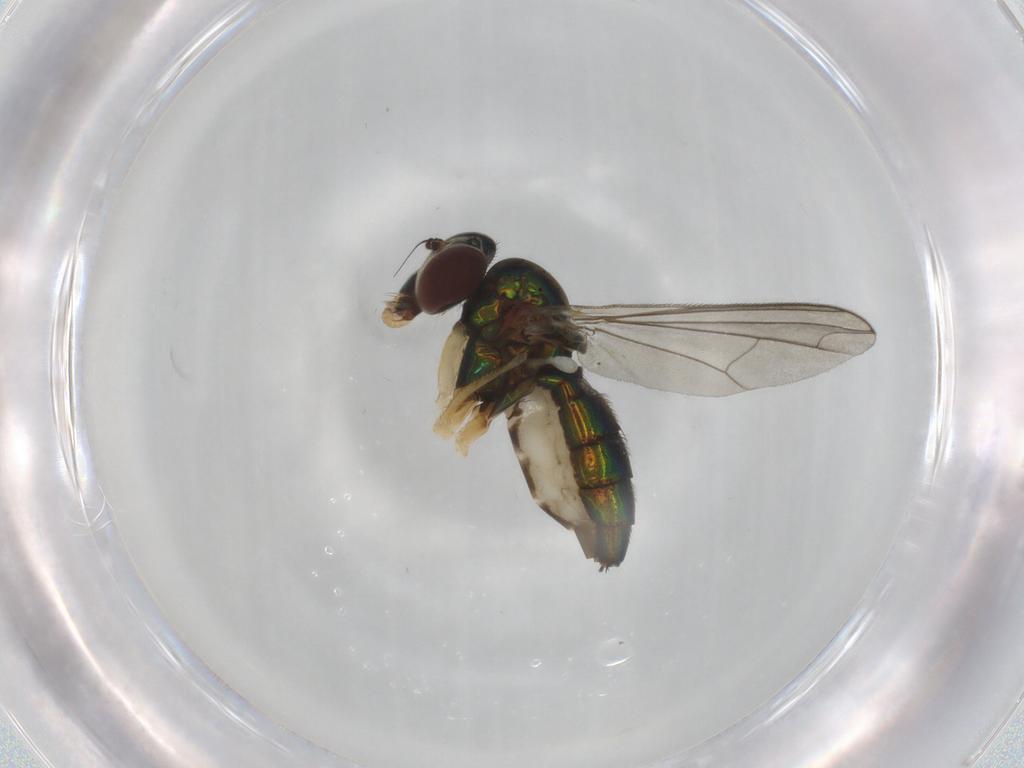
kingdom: Animalia
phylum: Arthropoda
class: Insecta
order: Diptera
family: Dolichopodidae
